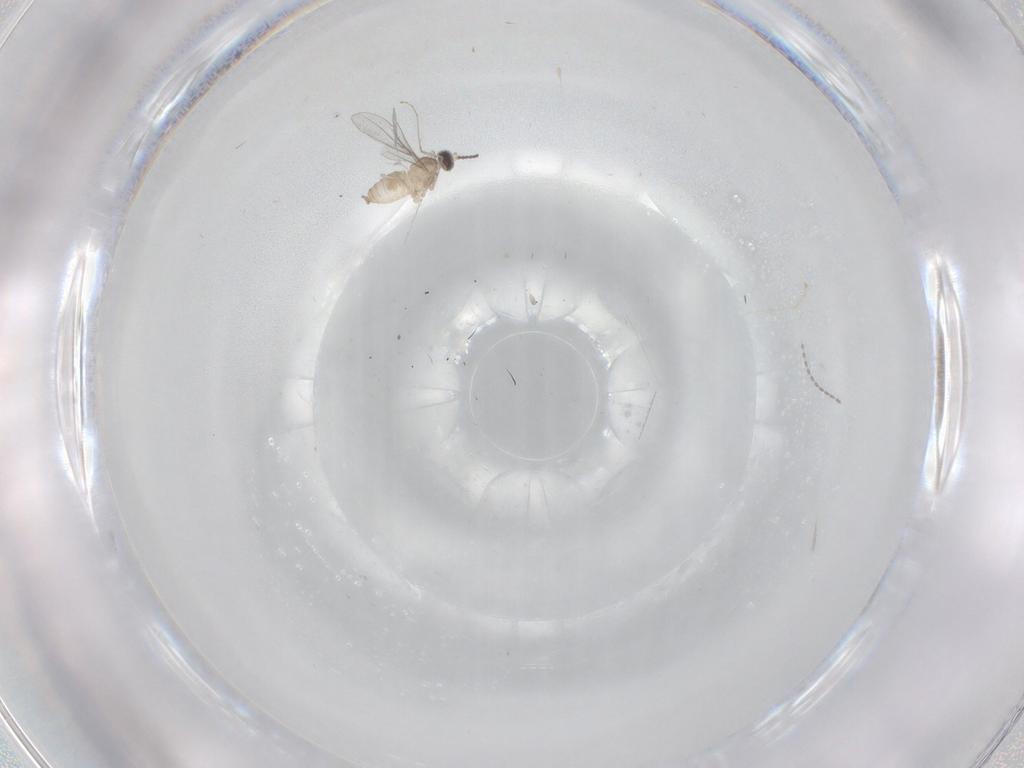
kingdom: Animalia
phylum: Arthropoda
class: Insecta
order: Diptera
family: Cecidomyiidae
